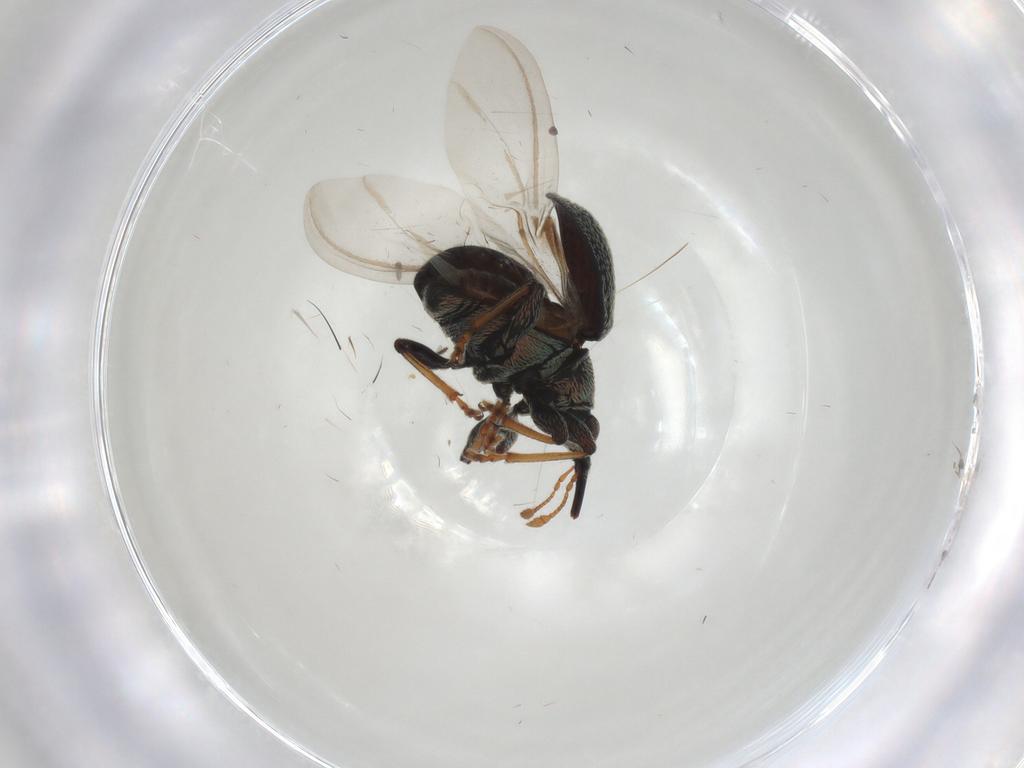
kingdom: Animalia
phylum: Arthropoda
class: Insecta
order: Coleoptera
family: Brentidae
